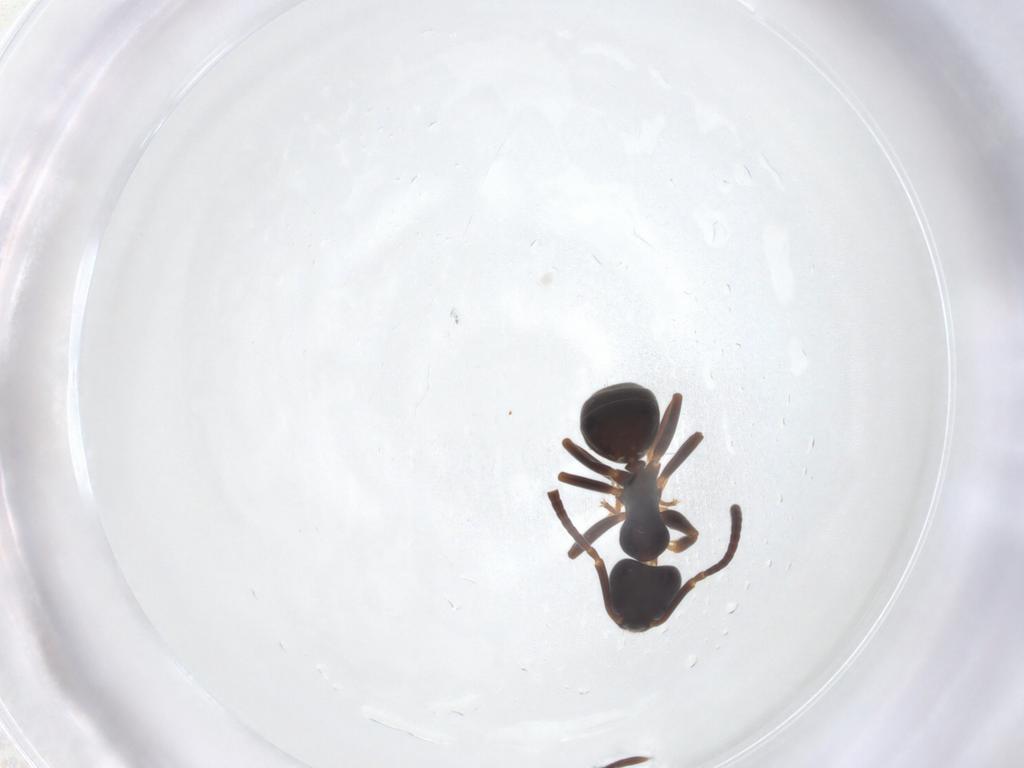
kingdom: Animalia
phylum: Arthropoda
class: Insecta
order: Hymenoptera
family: Formicidae
